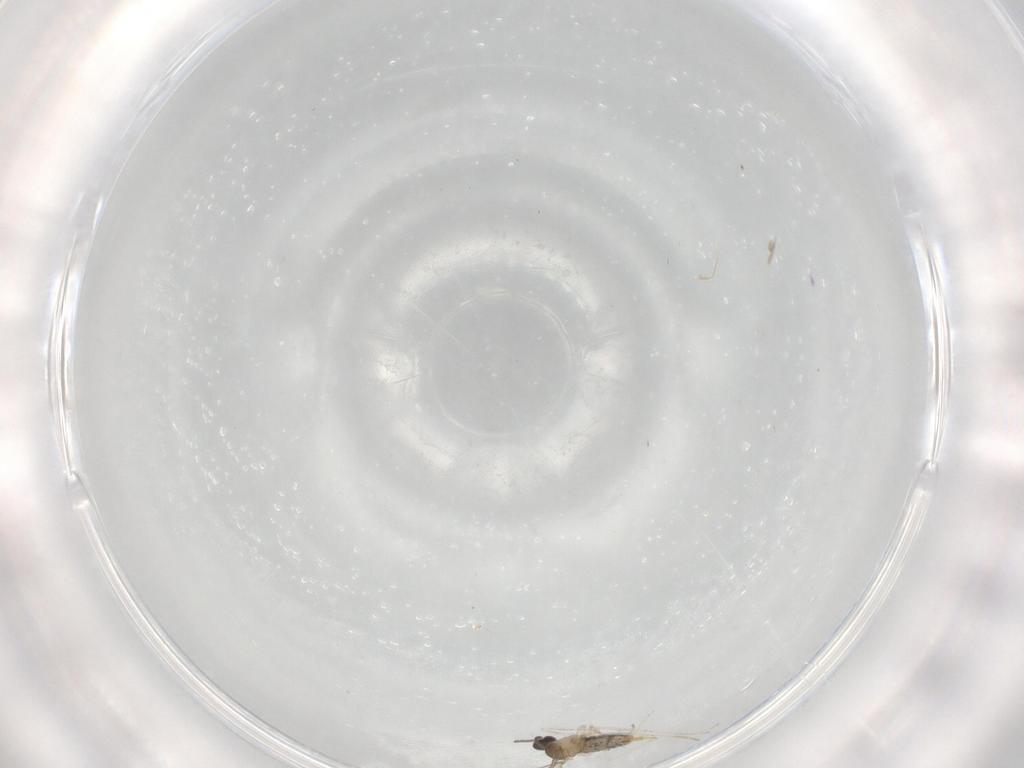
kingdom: Animalia
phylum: Arthropoda
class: Insecta
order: Diptera
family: Cecidomyiidae
